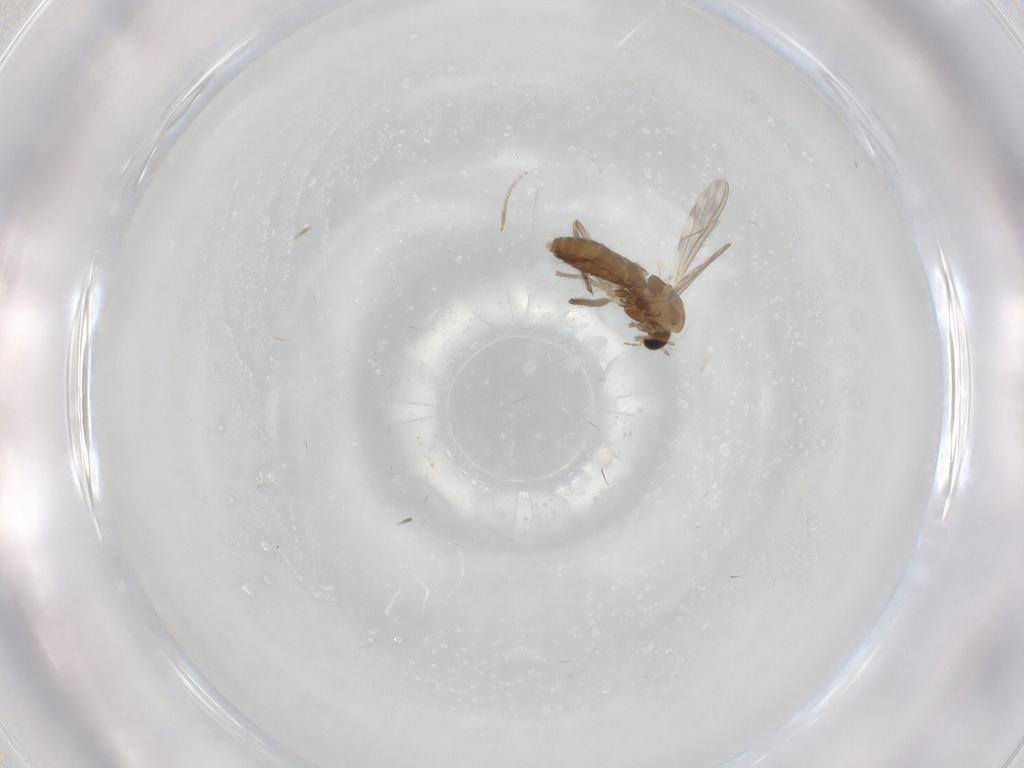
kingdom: Animalia
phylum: Arthropoda
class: Insecta
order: Diptera
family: Chironomidae
